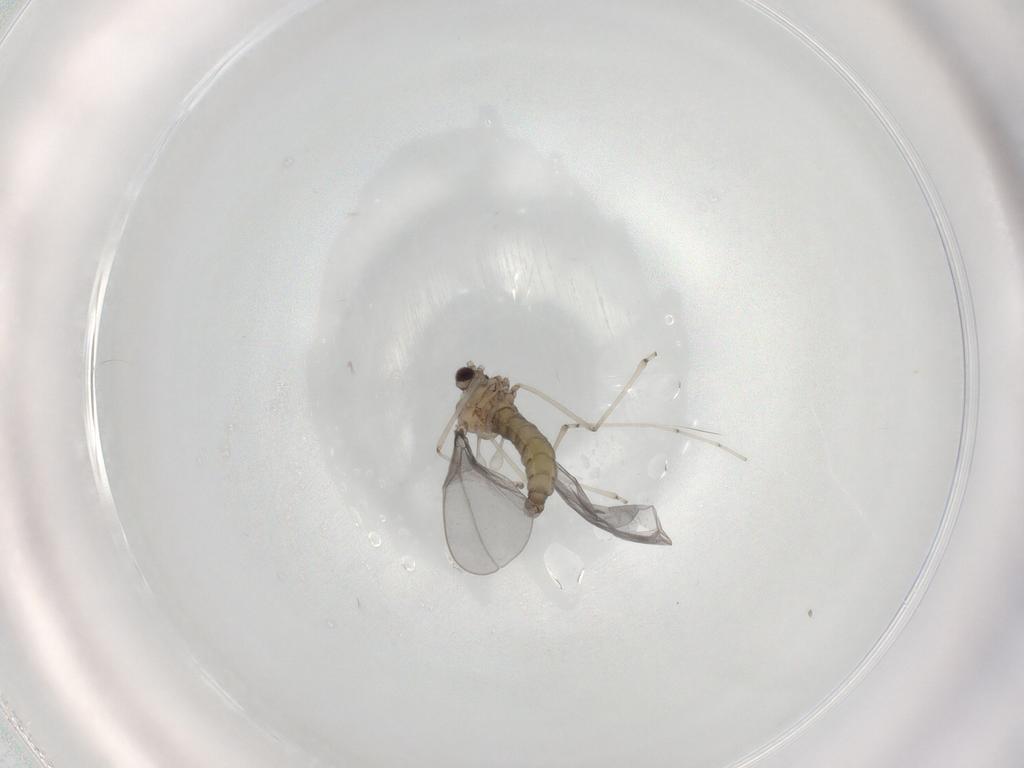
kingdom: Animalia
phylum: Arthropoda
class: Insecta
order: Diptera
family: Cecidomyiidae
